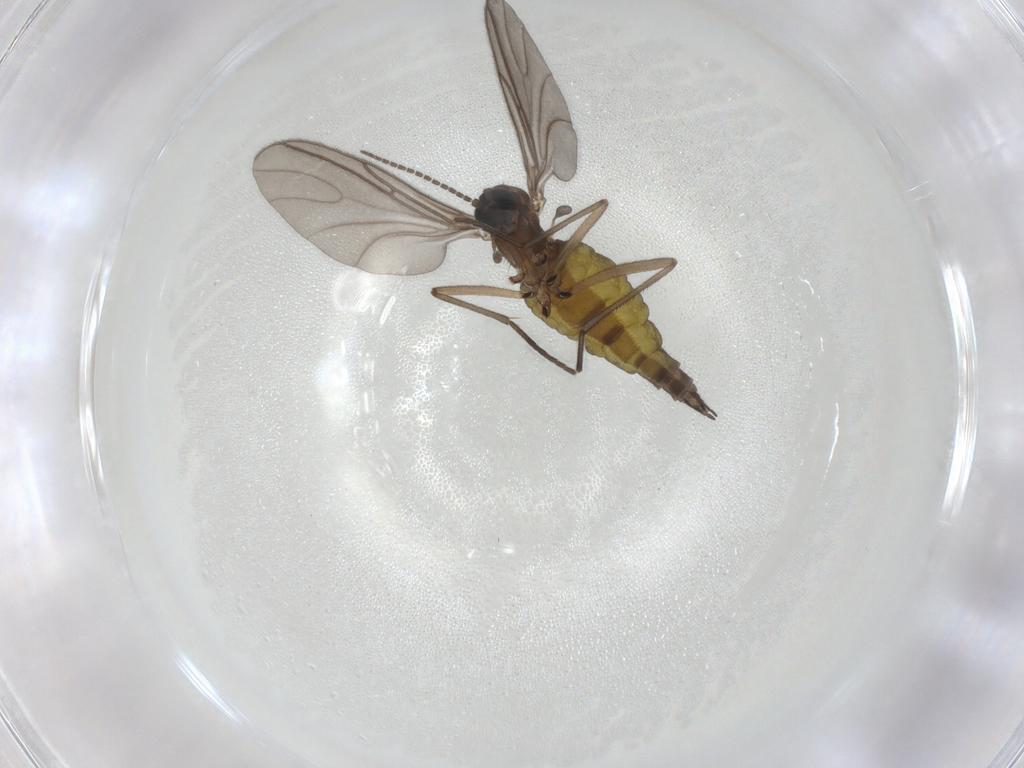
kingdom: Animalia
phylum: Arthropoda
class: Insecta
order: Diptera
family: Sciaridae
